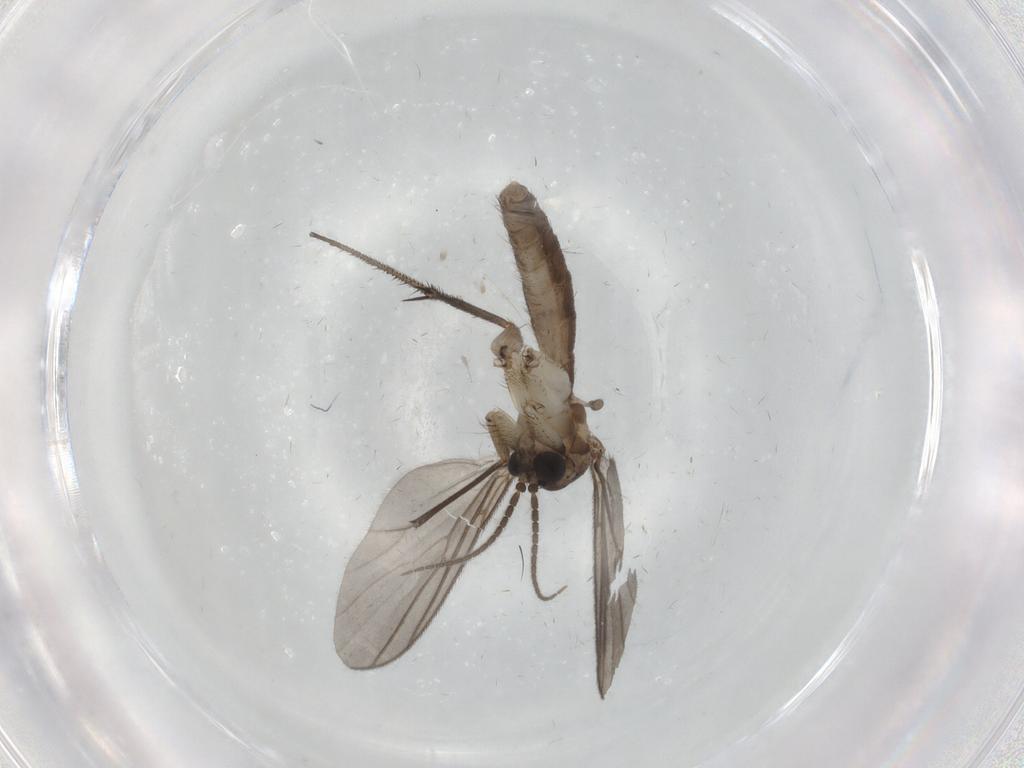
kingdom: Animalia
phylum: Arthropoda
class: Insecta
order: Diptera
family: Mycetophilidae
